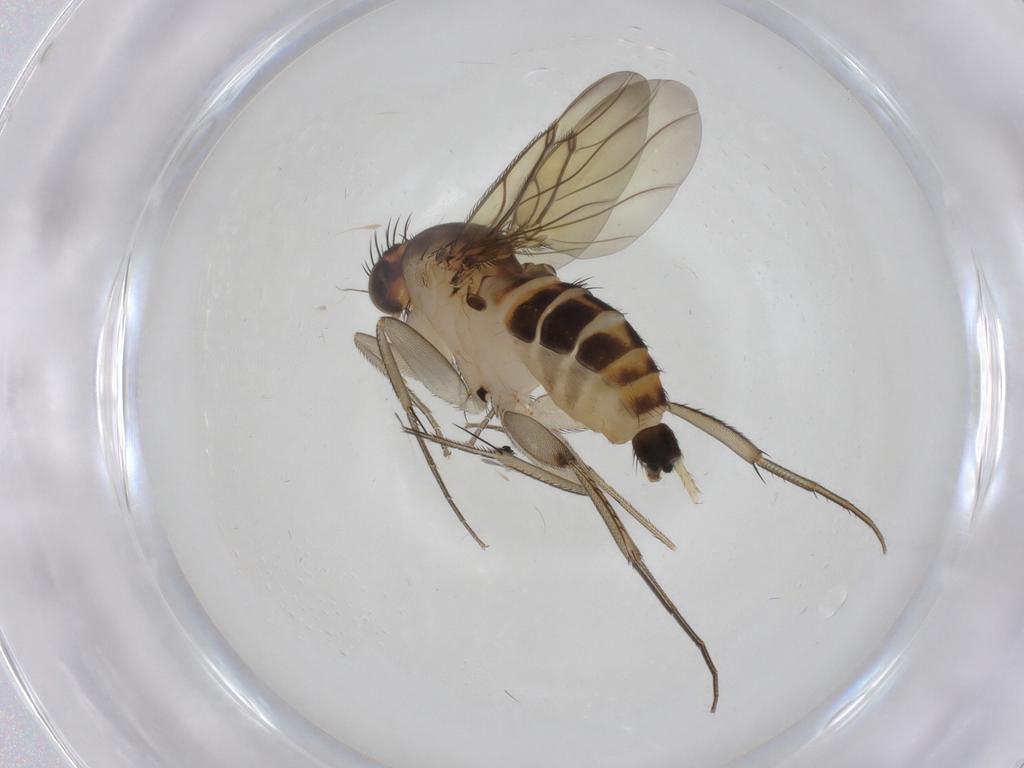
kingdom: Animalia
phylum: Arthropoda
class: Insecta
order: Diptera
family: Phoridae
